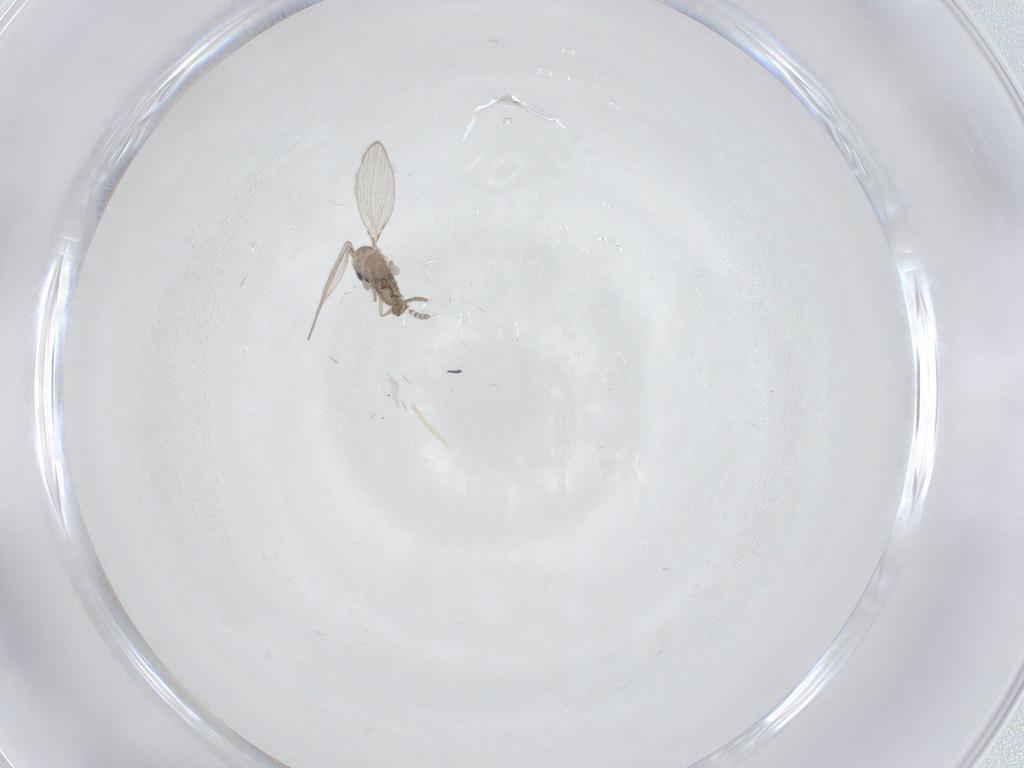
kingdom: Animalia
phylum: Arthropoda
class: Insecta
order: Diptera
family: Psychodidae
